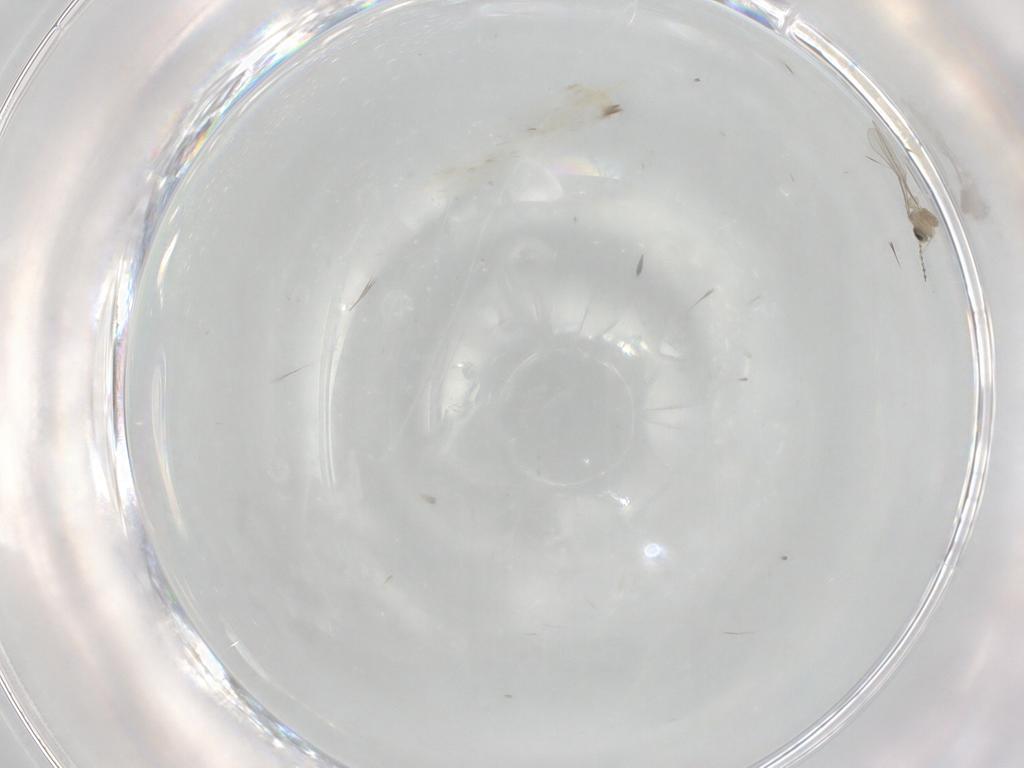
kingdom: Animalia
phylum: Arthropoda
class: Insecta
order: Diptera
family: Cecidomyiidae
